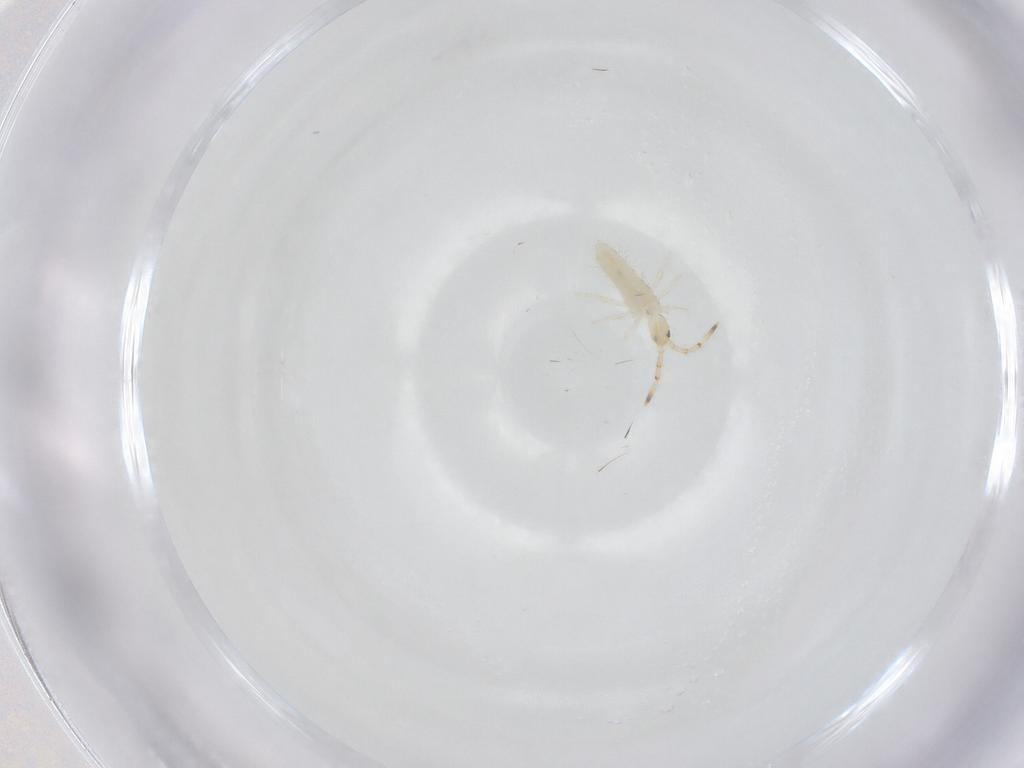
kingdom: Animalia
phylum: Arthropoda
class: Collembola
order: Entomobryomorpha
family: Entomobryidae
